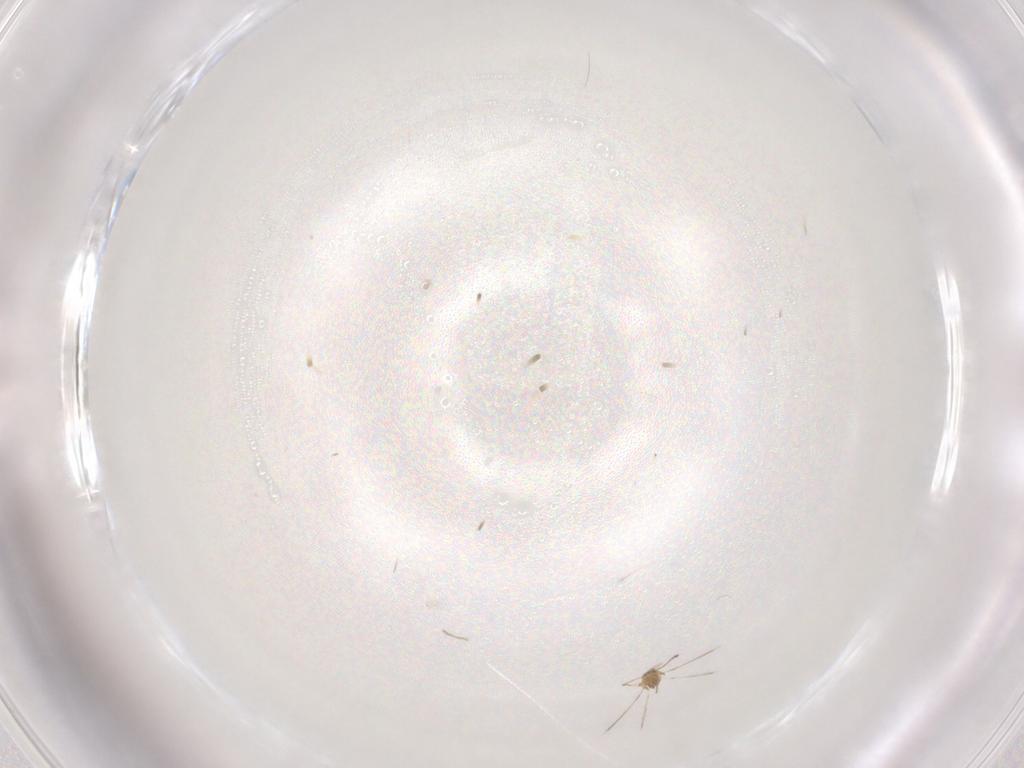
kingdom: Animalia
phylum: Arthropoda
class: Insecta
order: Hymenoptera
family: Mymaridae
